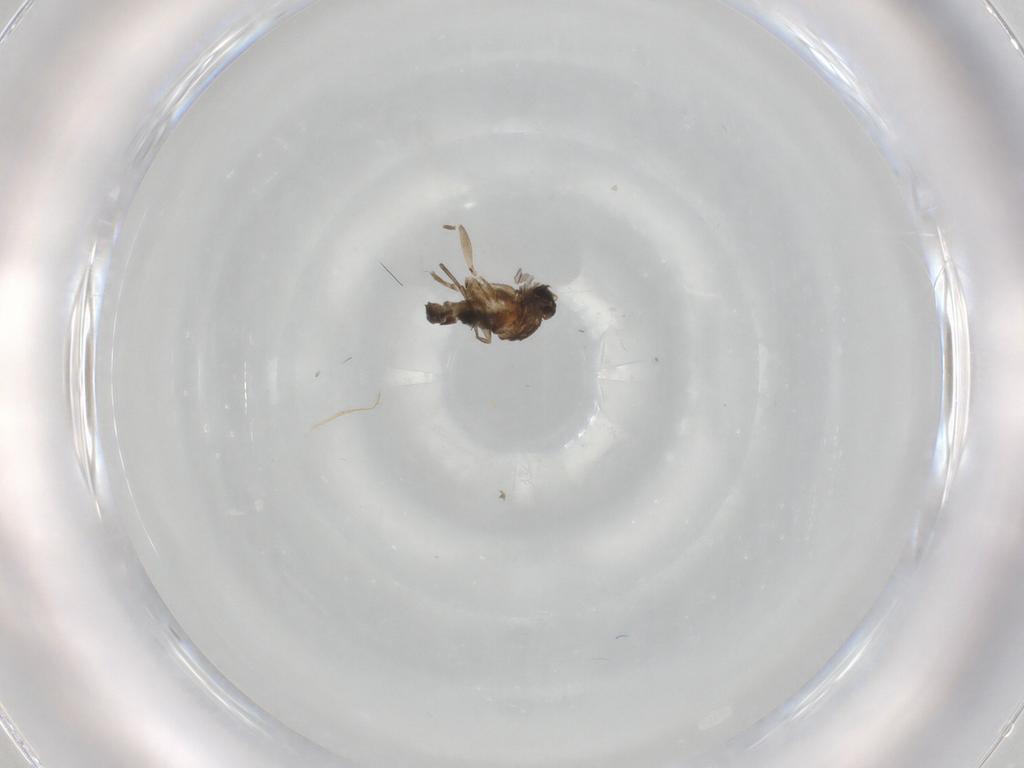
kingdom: Animalia
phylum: Arthropoda
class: Insecta
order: Diptera
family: Sciaridae
